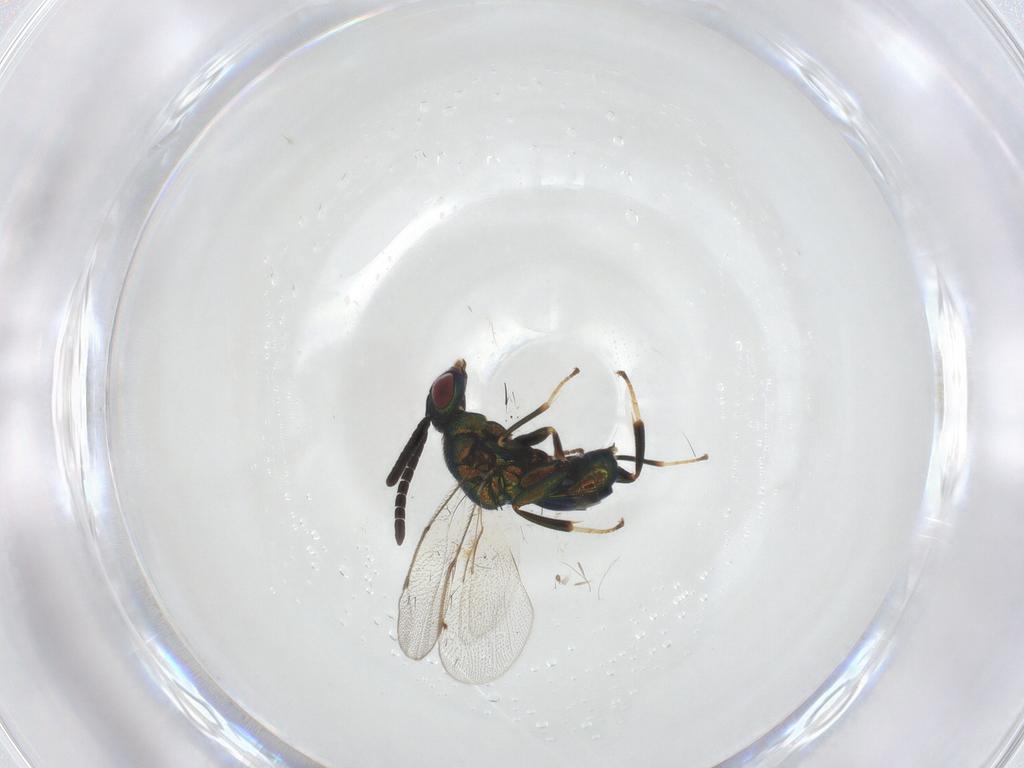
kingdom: Animalia
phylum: Arthropoda
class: Insecta
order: Hymenoptera
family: Torymidae
